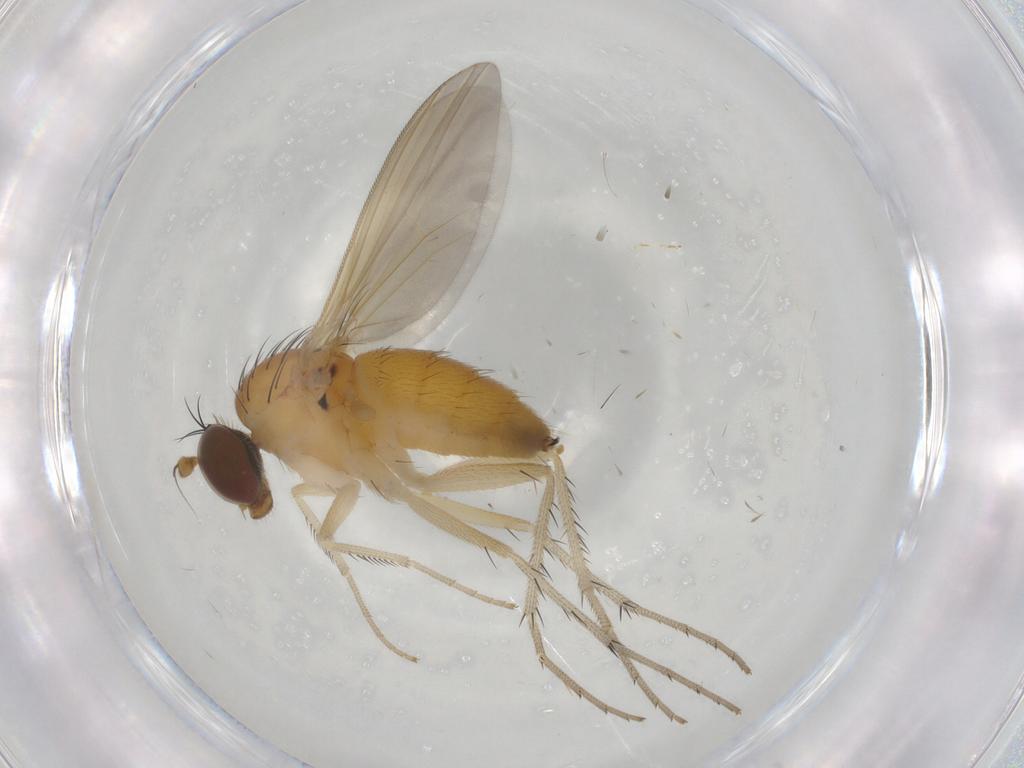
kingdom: Animalia
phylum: Arthropoda
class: Insecta
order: Diptera
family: Dolichopodidae
